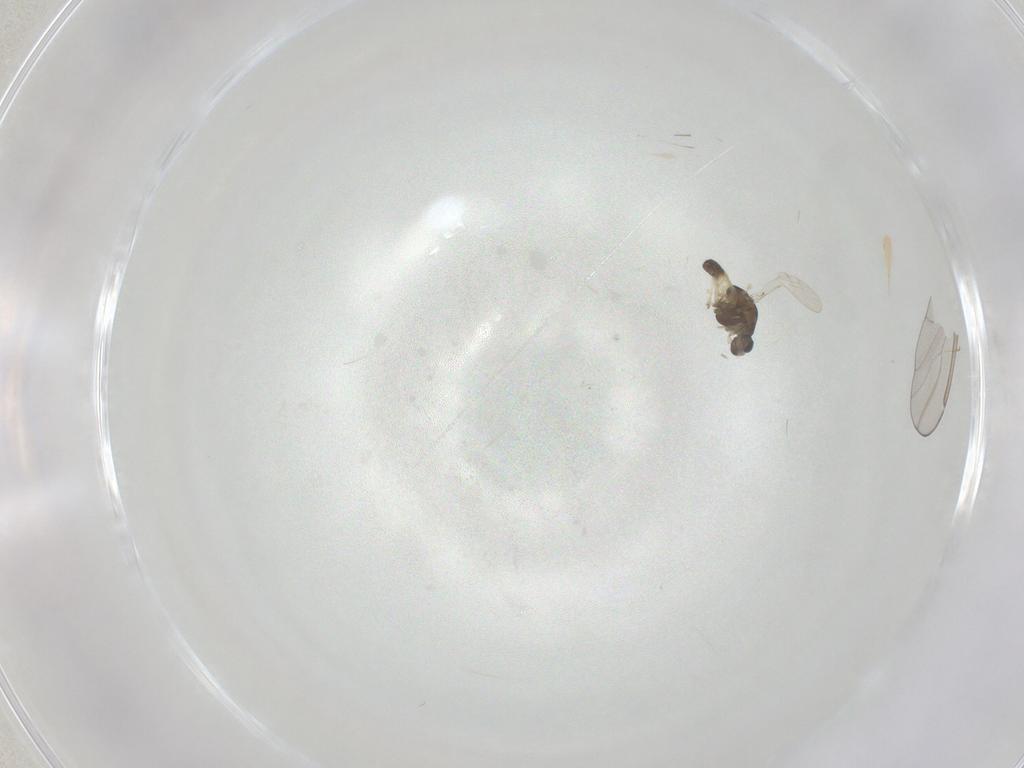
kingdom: Animalia
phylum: Arthropoda
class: Insecta
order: Diptera
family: Chironomidae
